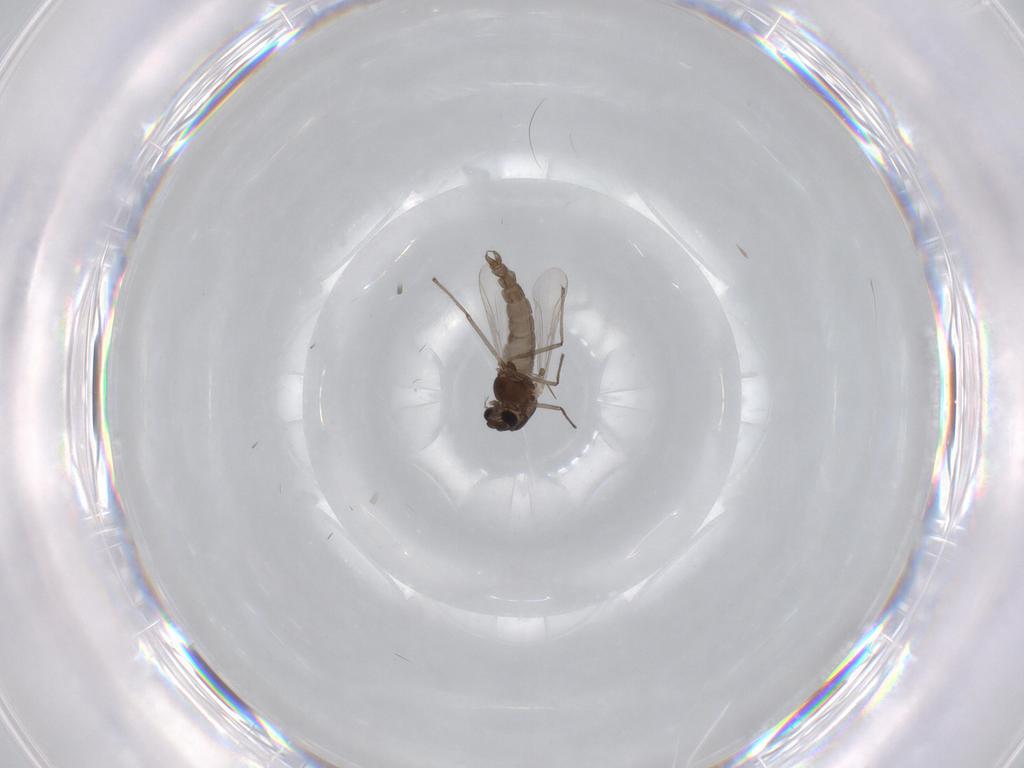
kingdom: Animalia
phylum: Arthropoda
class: Insecta
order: Diptera
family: Chironomidae
